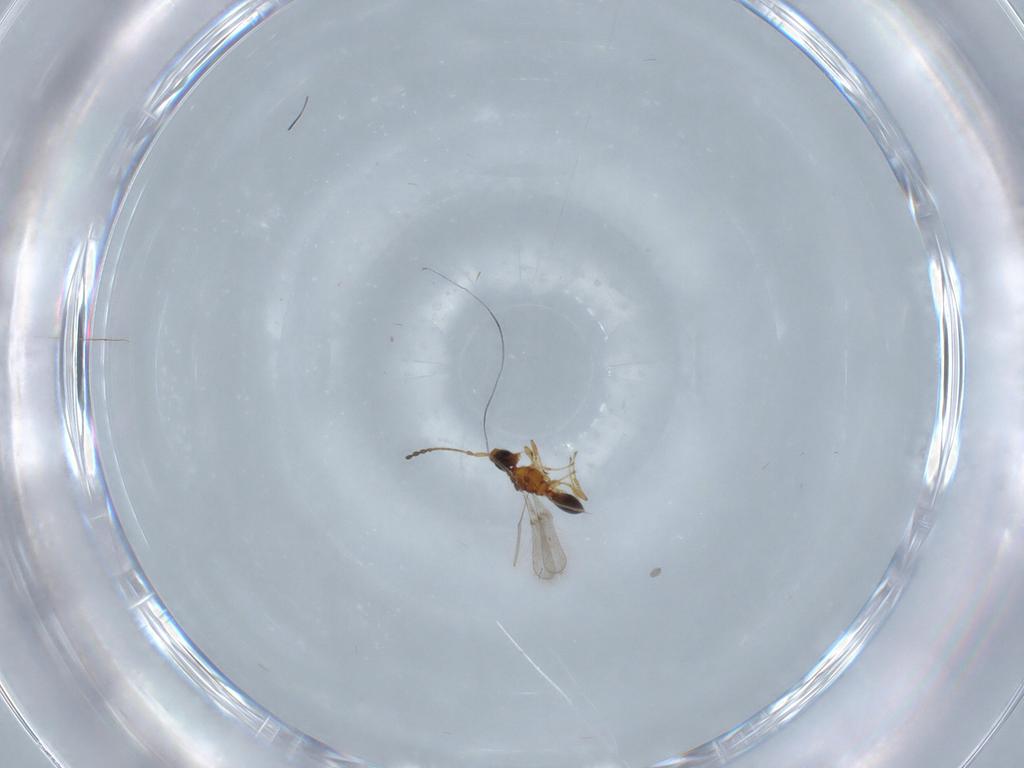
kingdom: Animalia
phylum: Arthropoda
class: Insecta
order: Hymenoptera
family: Diapriidae
